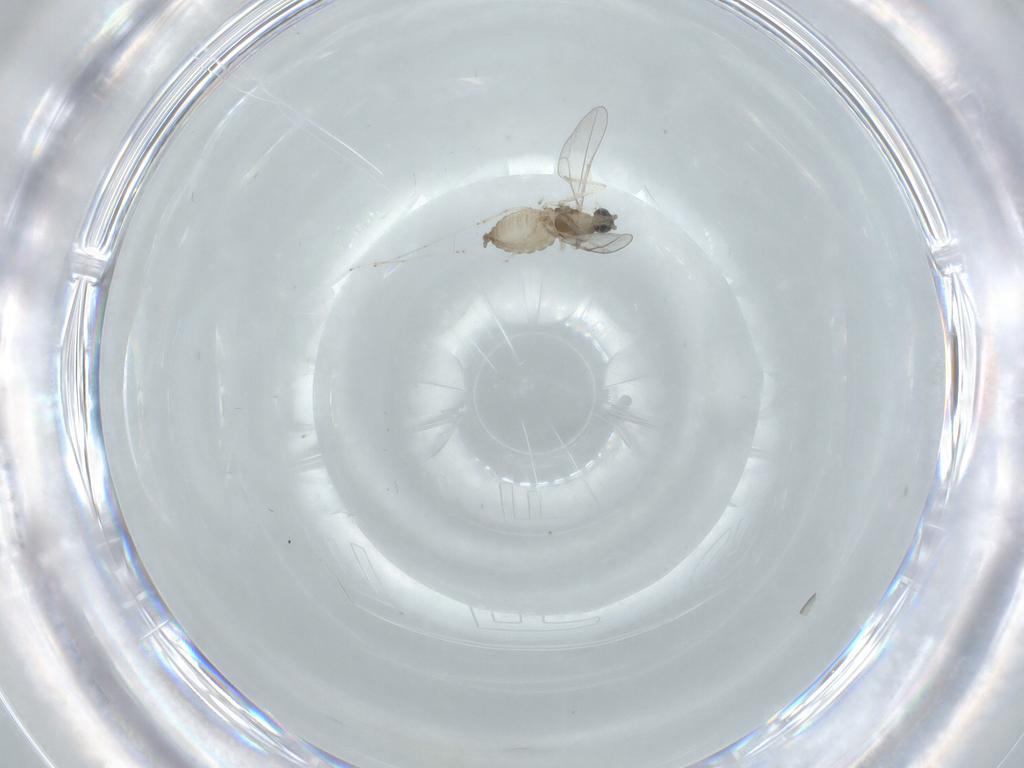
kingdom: Animalia
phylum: Arthropoda
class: Insecta
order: Diptera
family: Cecidomyiidae
